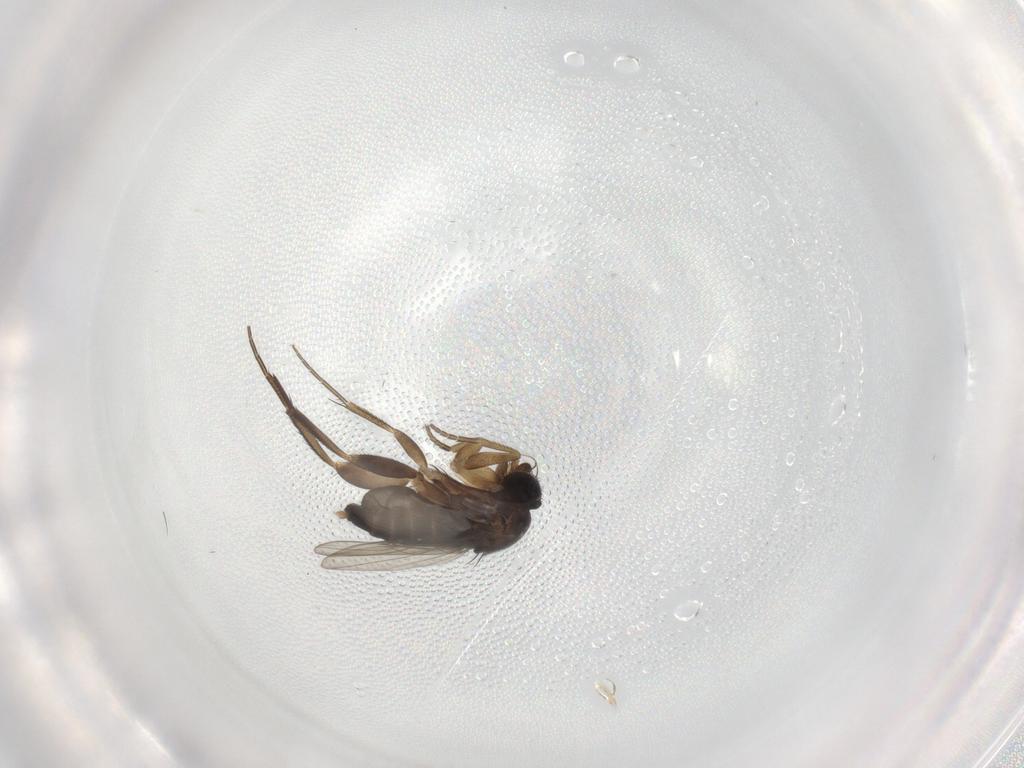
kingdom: Animalia
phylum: Arthropoda
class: Insecta
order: Diptera
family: Phoridae
